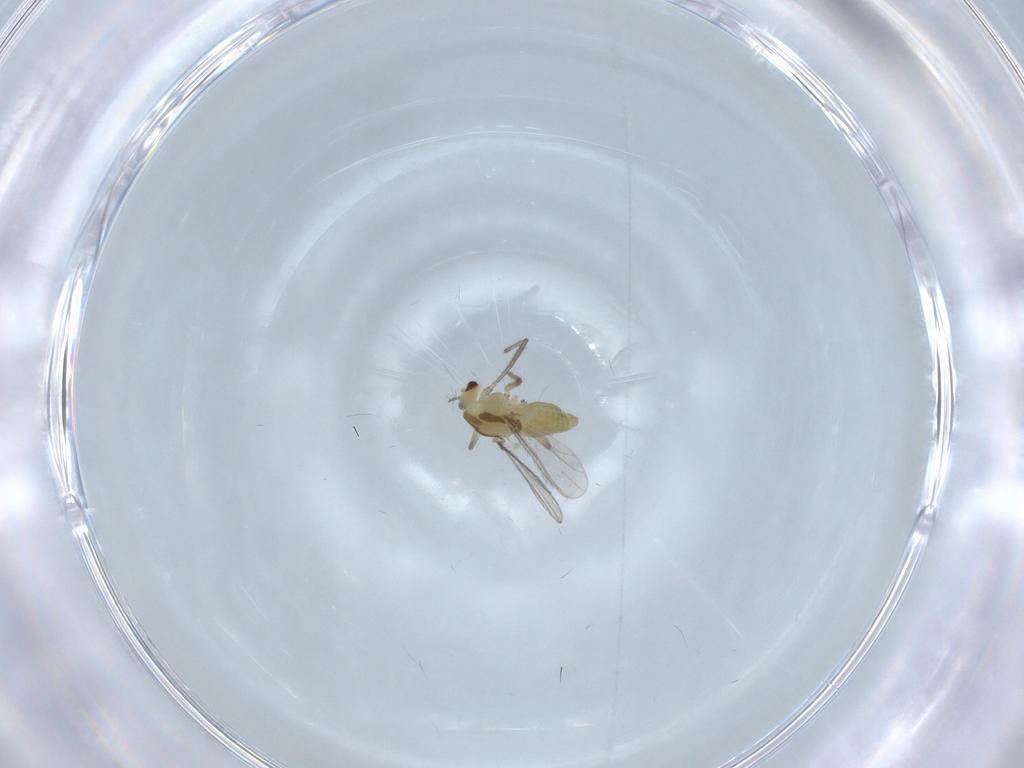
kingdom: Animalia
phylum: Arthropoda
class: Insecta
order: Diptera
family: Chironomidae
